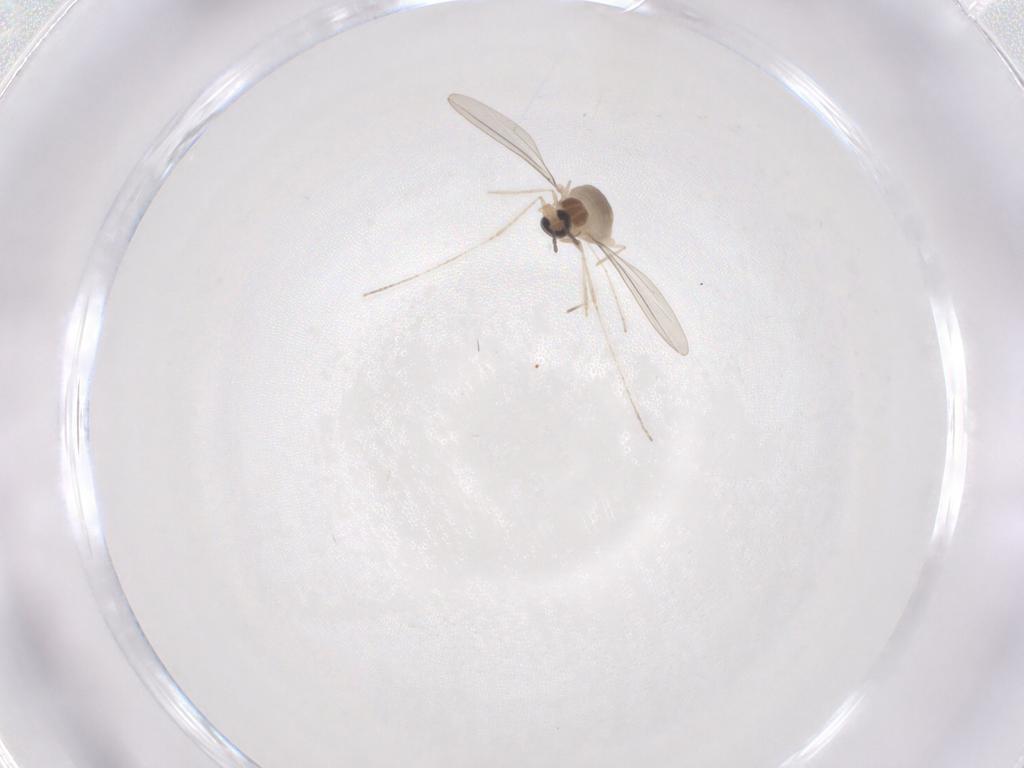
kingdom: Animalia
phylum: Arthropoda
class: Insecta
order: Diptera
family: Cecidomyiidae
